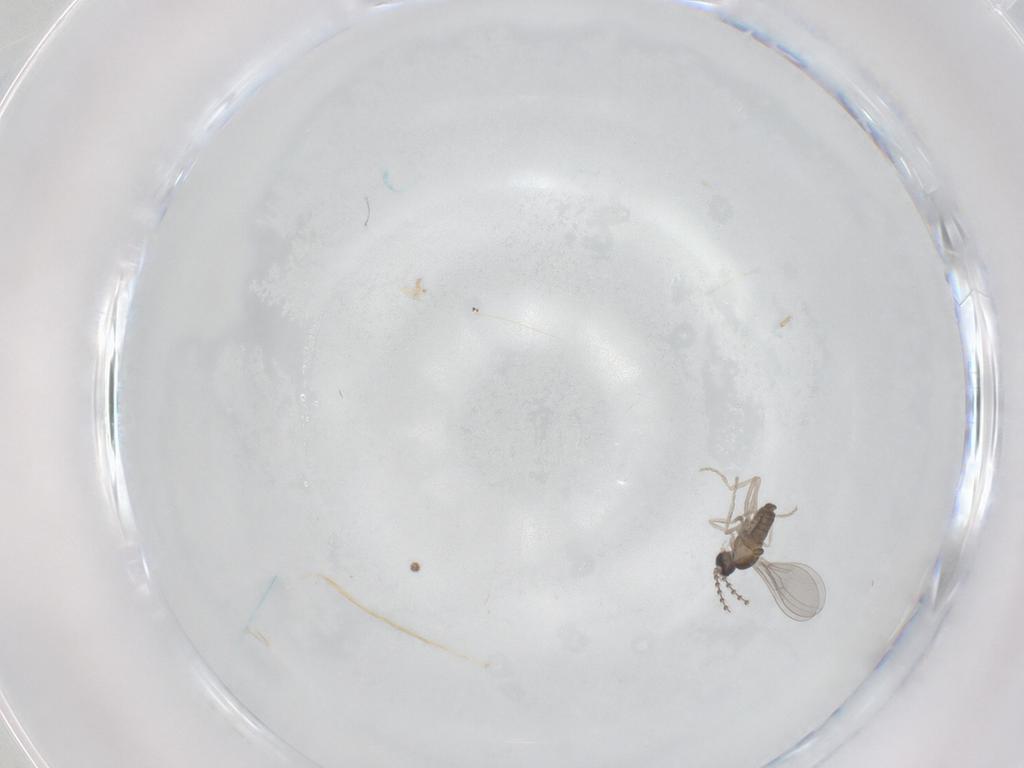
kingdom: Animalia
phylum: Arthropoda
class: Insecta
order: Diptera
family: Cecidomyiidae
